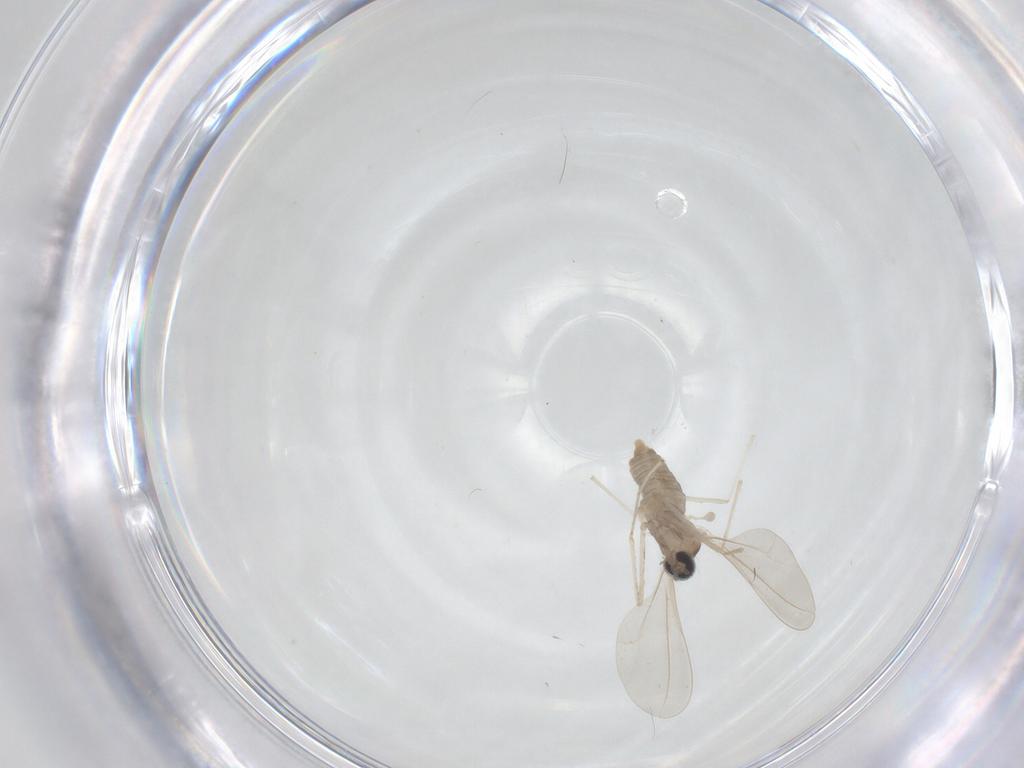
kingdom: Animalia
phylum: Arthropoda
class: Insecta
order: Diptera
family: Cecidomyiidae
